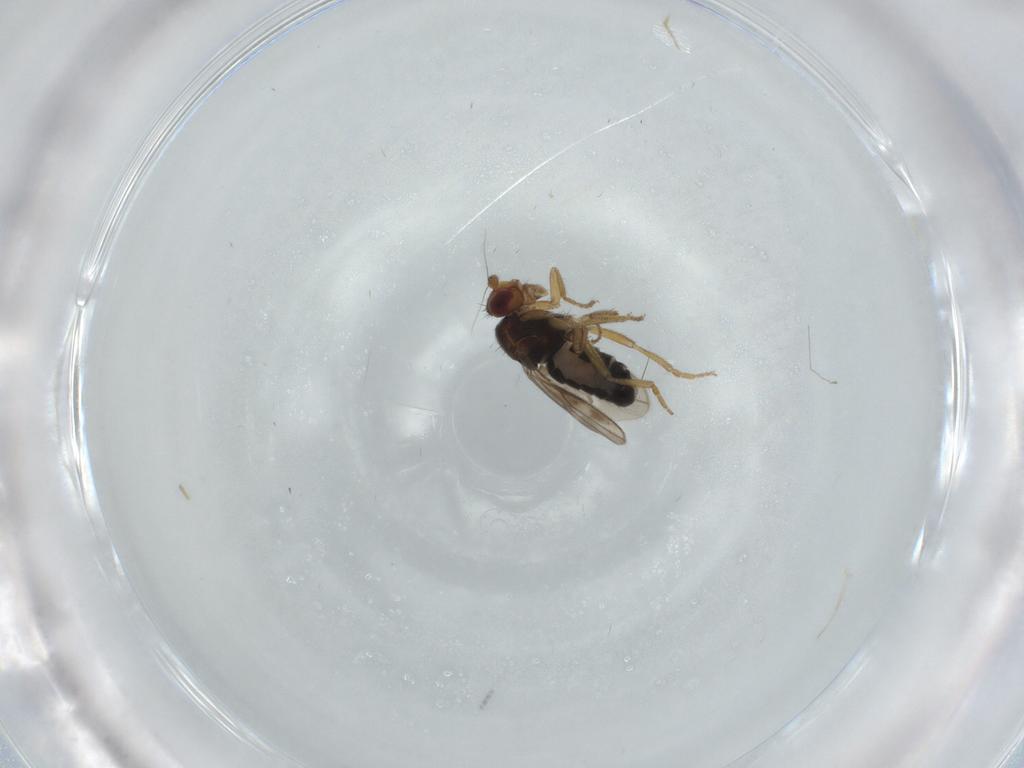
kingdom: Animalia
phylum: Arthropoda
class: Insecta
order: Diptera
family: Sphaeroceridae
